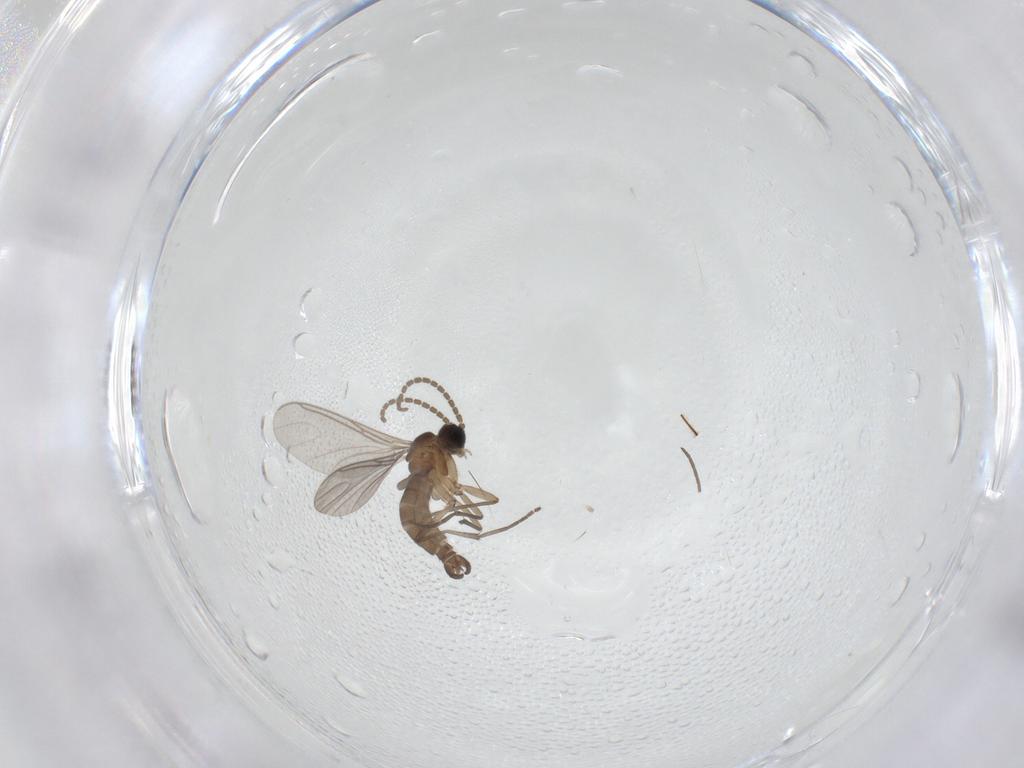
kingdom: Animalia
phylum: Arthropoda
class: Insecta
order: Diptera
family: Sciaridae
